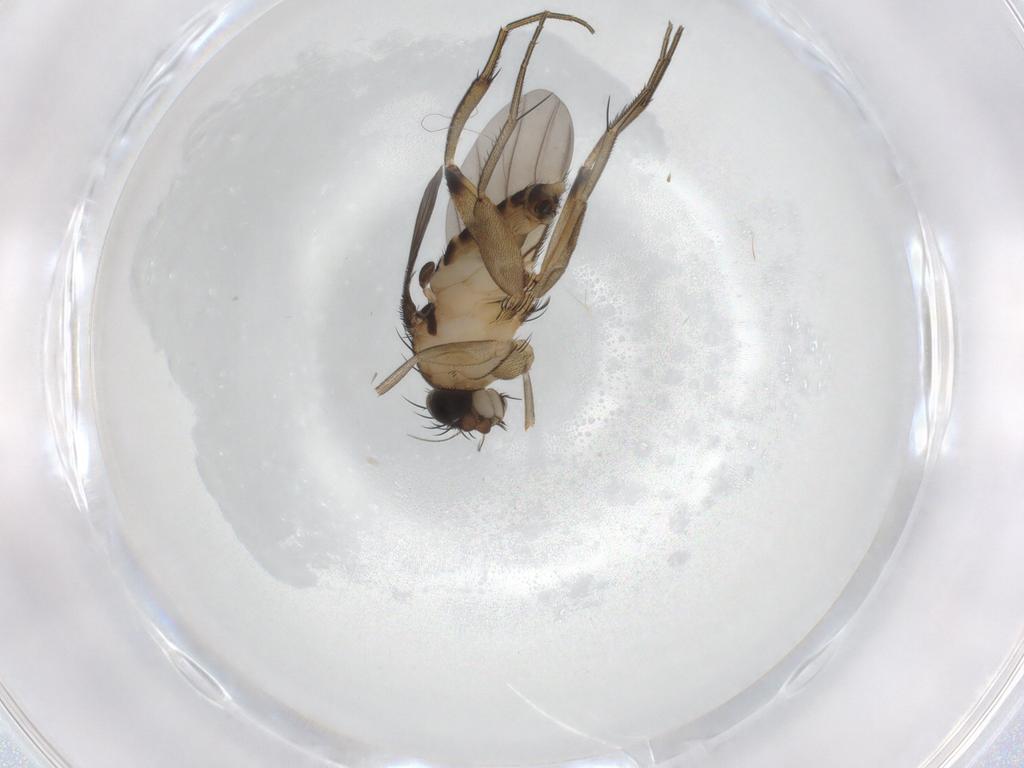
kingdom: Animalia
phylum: Arthropoda
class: Insecta
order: Diptera
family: Phoridae
